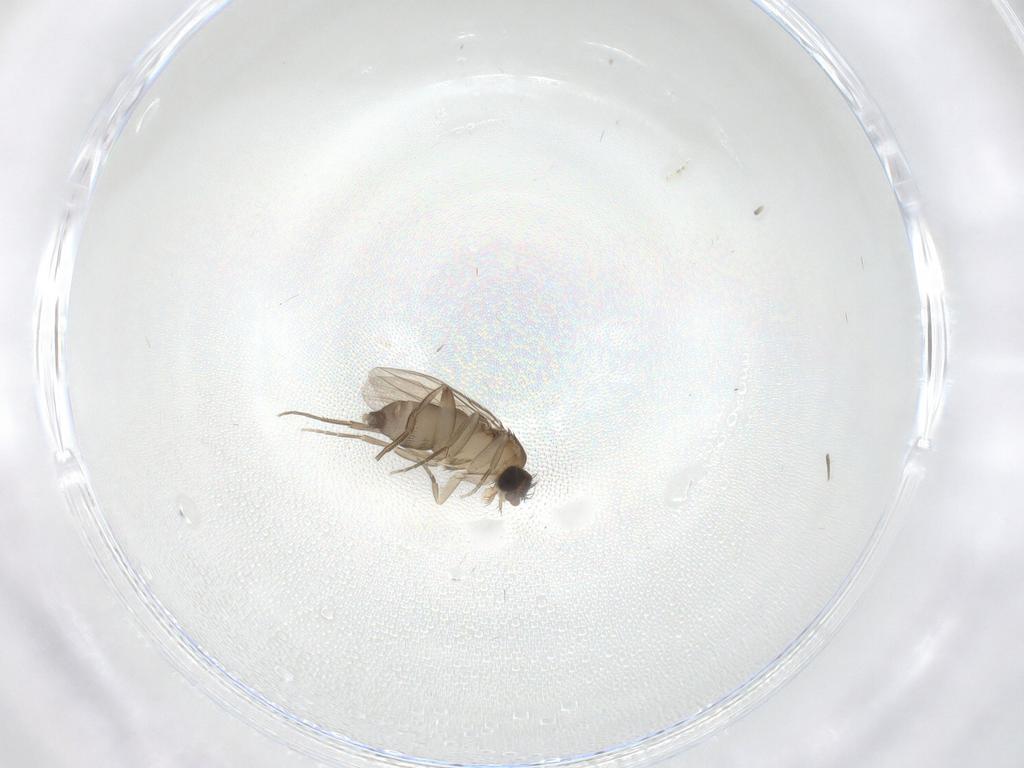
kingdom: Animalia
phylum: Arthropoda
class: Insecta
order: Diptera
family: Phoridae
